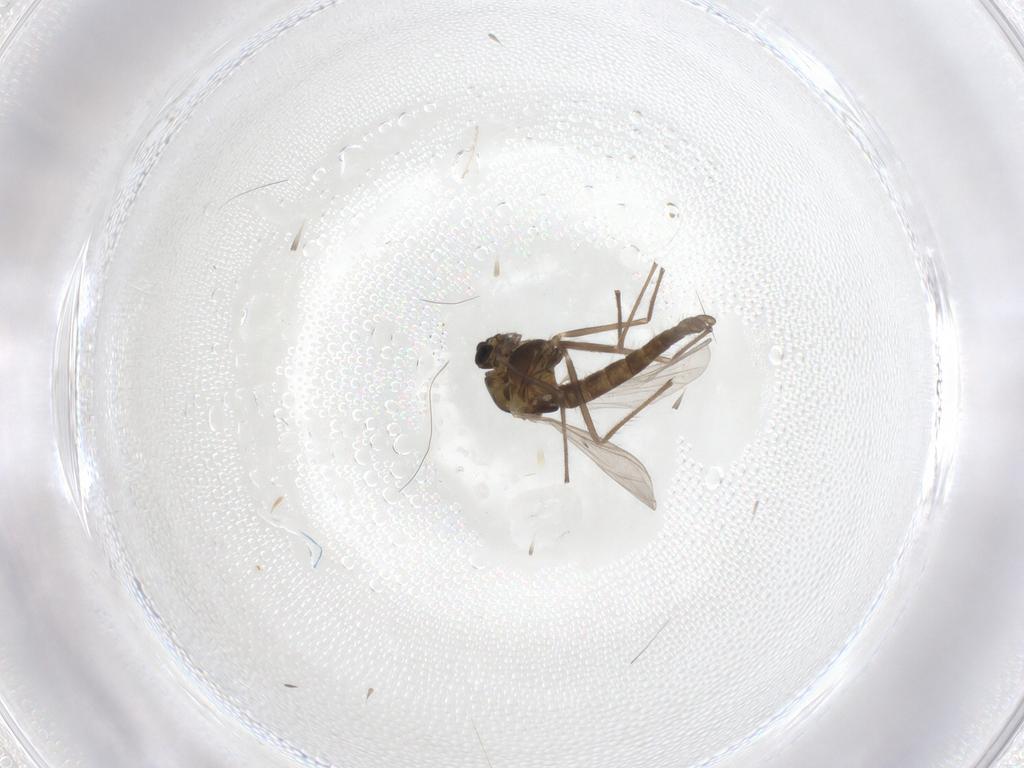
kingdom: Animalia
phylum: Arthropoda
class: Insecta
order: Diptera
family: Chironomidae
